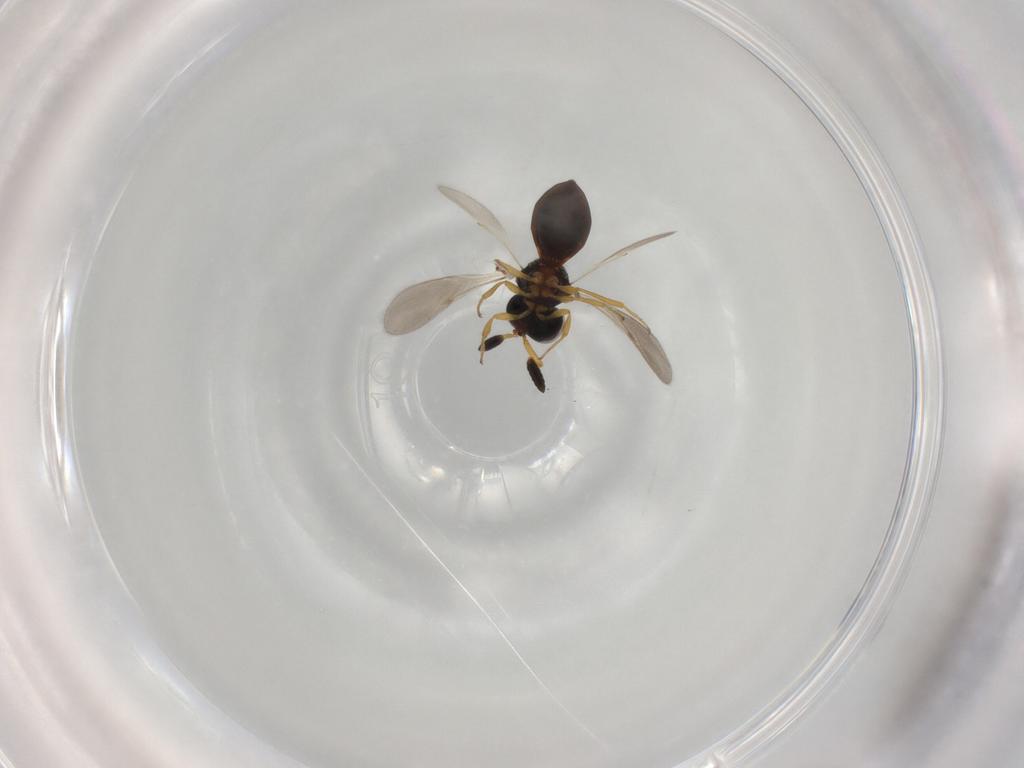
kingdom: Animalia
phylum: Arthropoda
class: Insecta
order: Hymenoptera
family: Scelionidae
